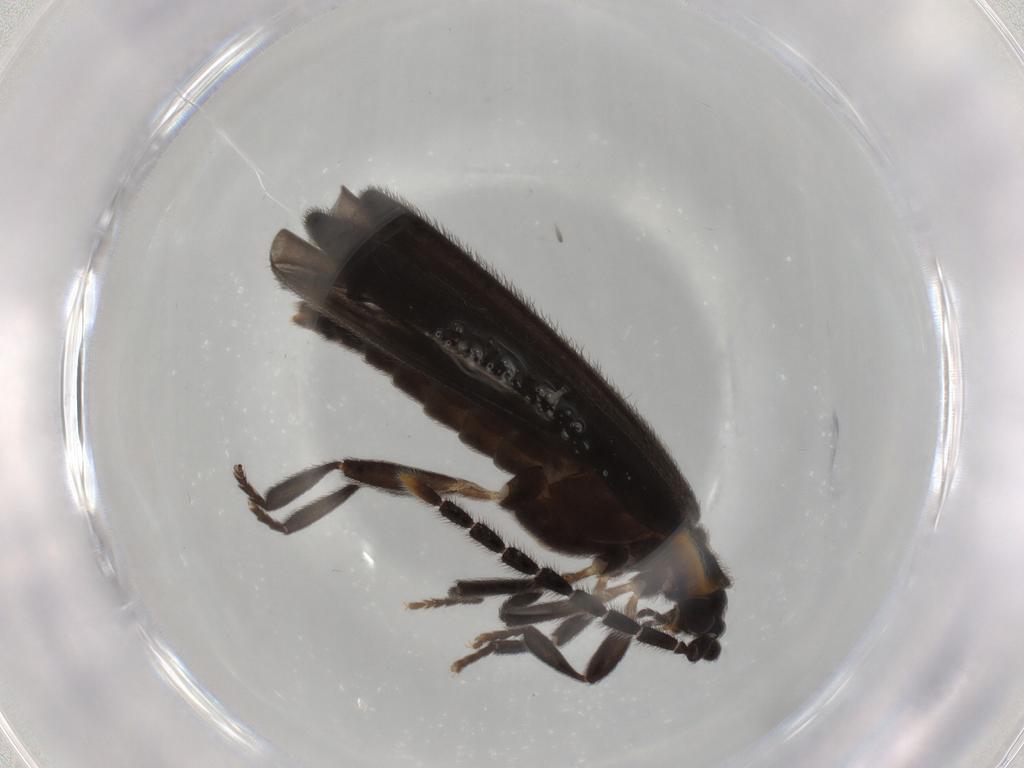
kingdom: Animalia
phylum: Arthropoda
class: Insecta
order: Coleoptera
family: Lycidae
